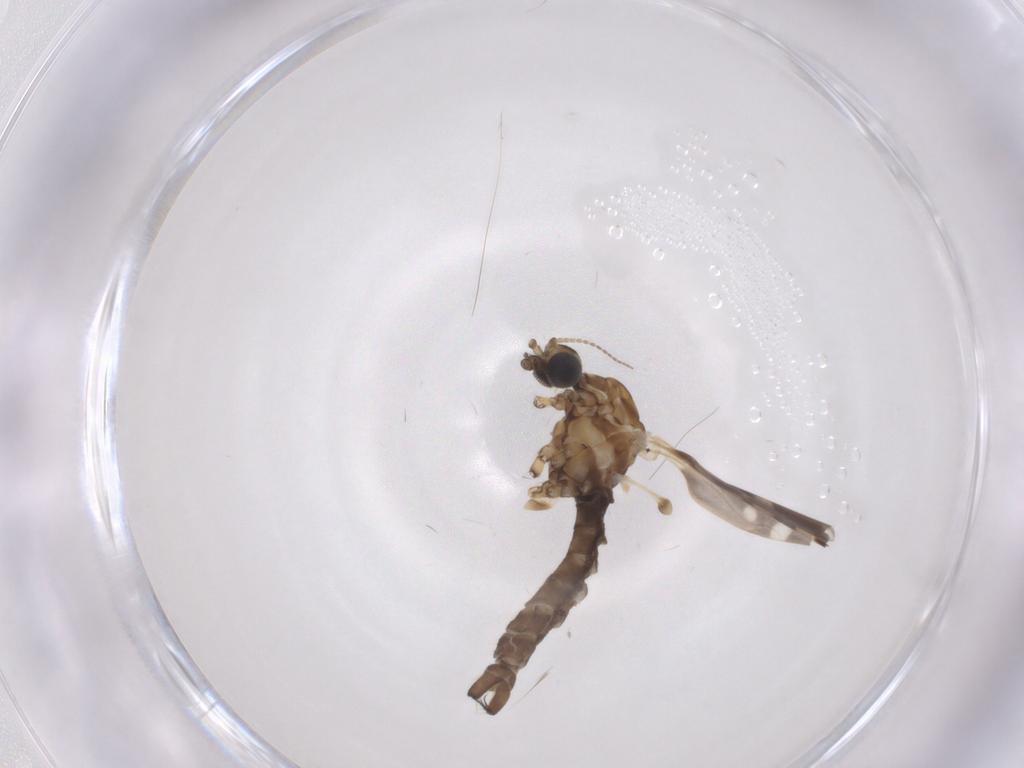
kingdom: Animalia
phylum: Arthropoda
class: Insecta
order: Diptera
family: Limoniidae
